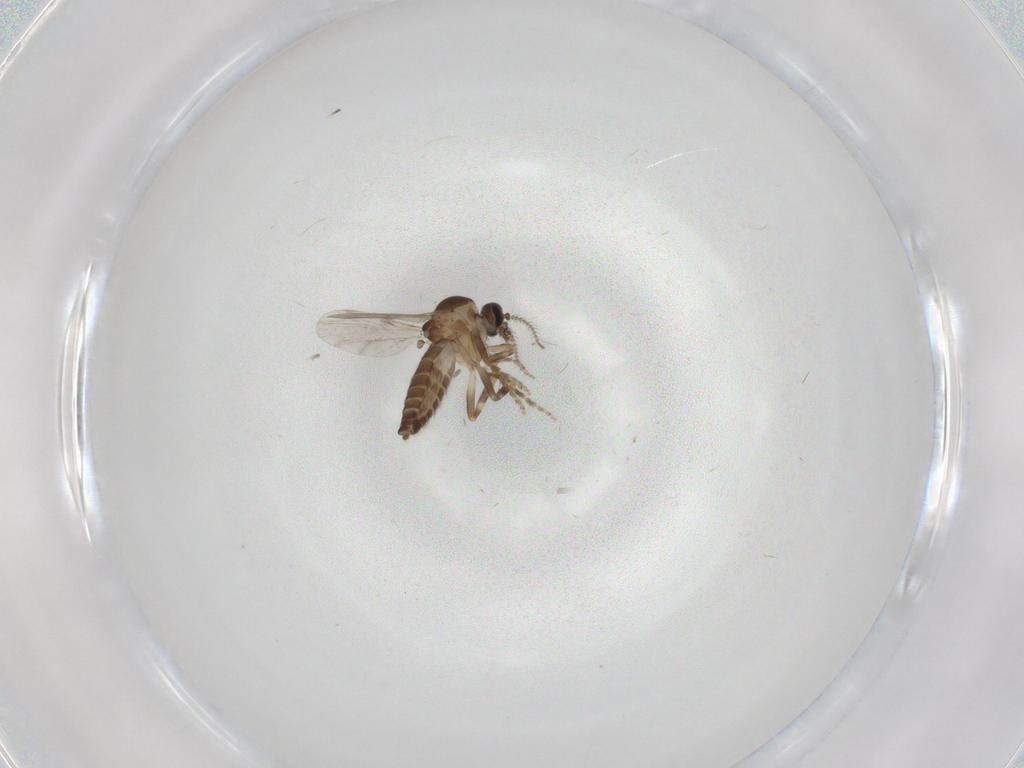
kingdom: Animalia
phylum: Arthropoda
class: Insecta
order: Diptera
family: Ceratopogonidae
